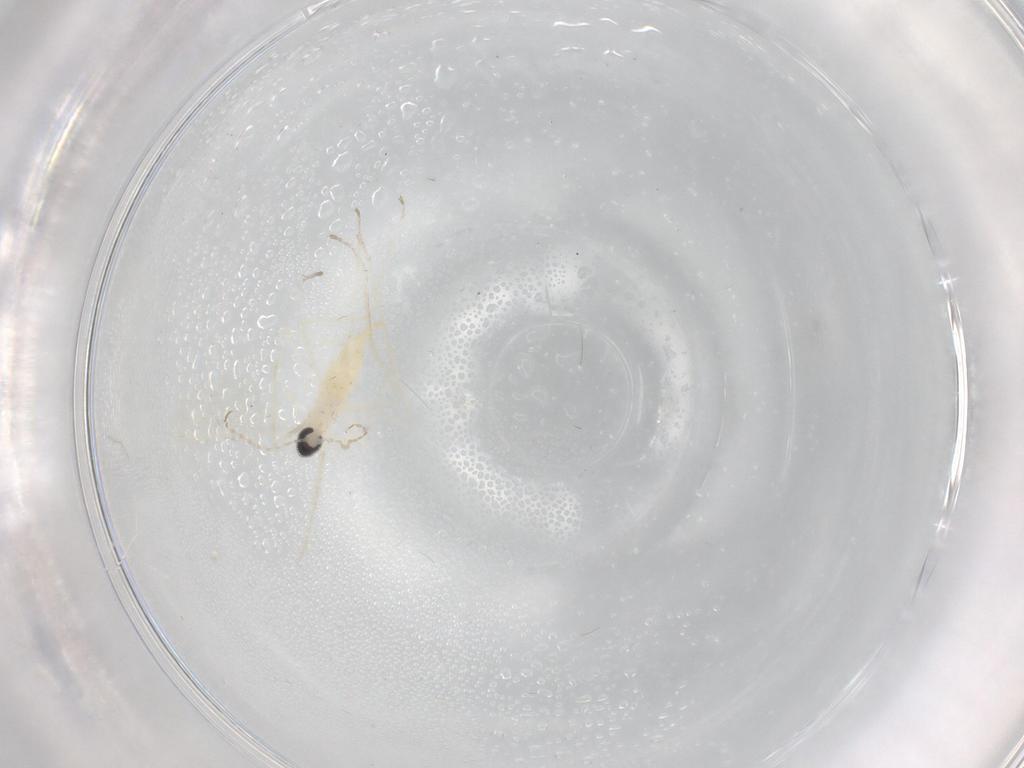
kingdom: Animalia
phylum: Arthropoda
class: Insecta
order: Diptera
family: Cecidomyiidae
